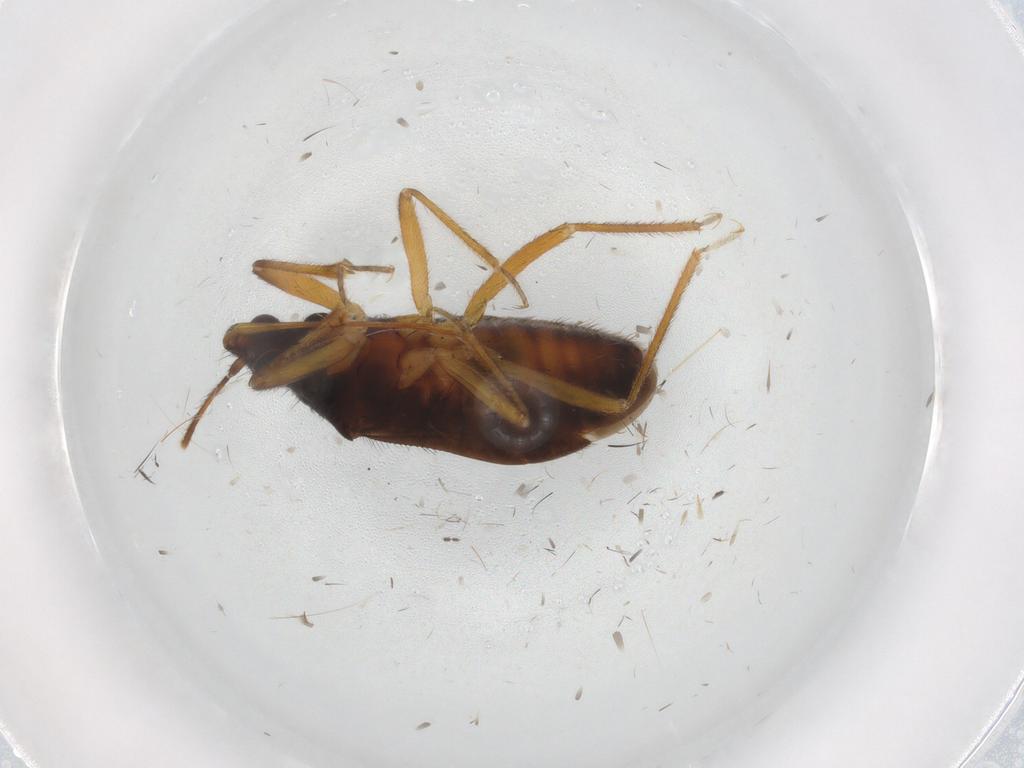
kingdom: Animalia
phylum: Arthropoda
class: Insecta
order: Hemiptera
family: Anthocoridae
